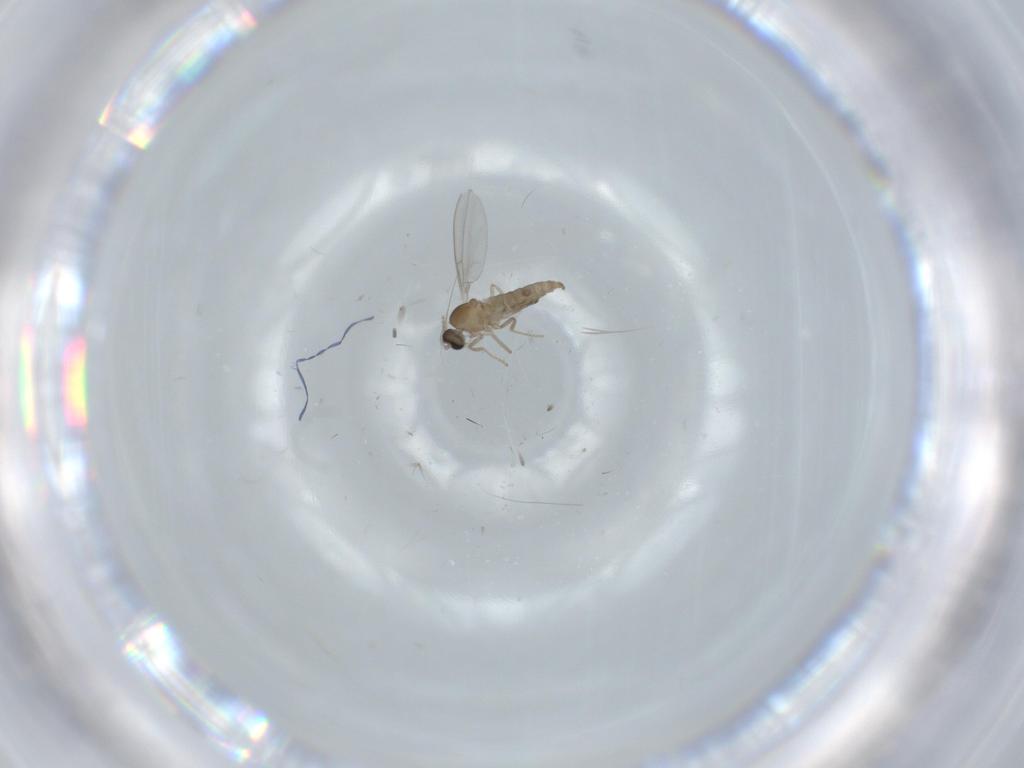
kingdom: Animalia
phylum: Arthropoda
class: Insecta
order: Diptera
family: Cecidomyiidae
